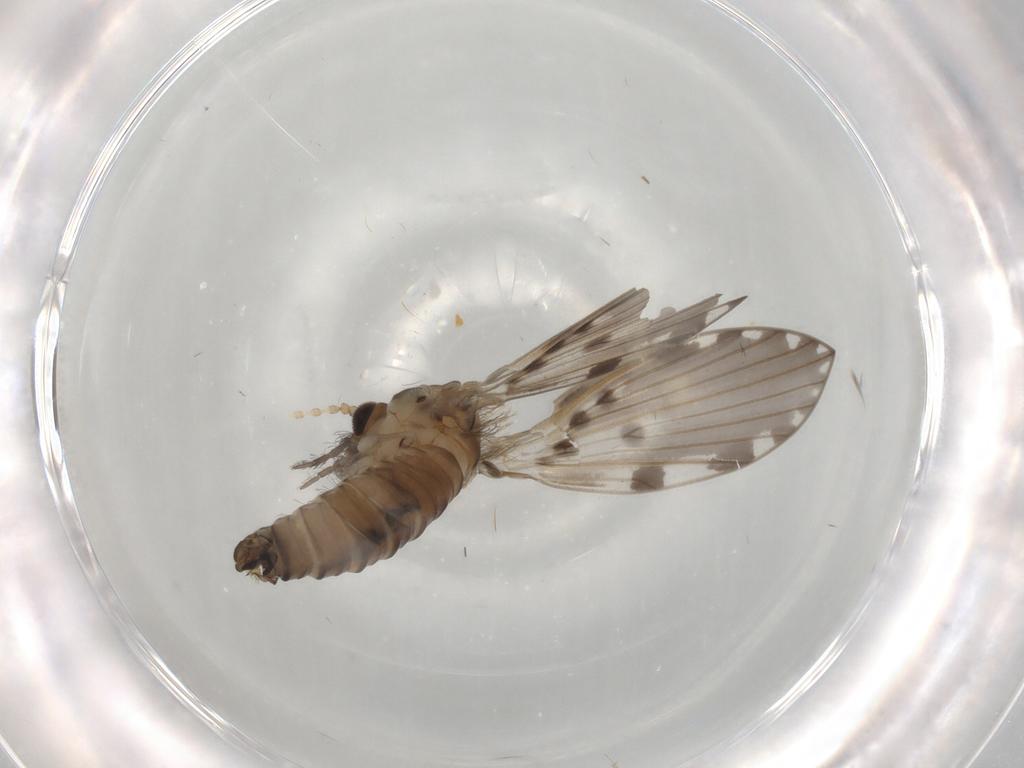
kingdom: Animalia
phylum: Arthropoda
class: Insecta
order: Diptera
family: Psychodidae
